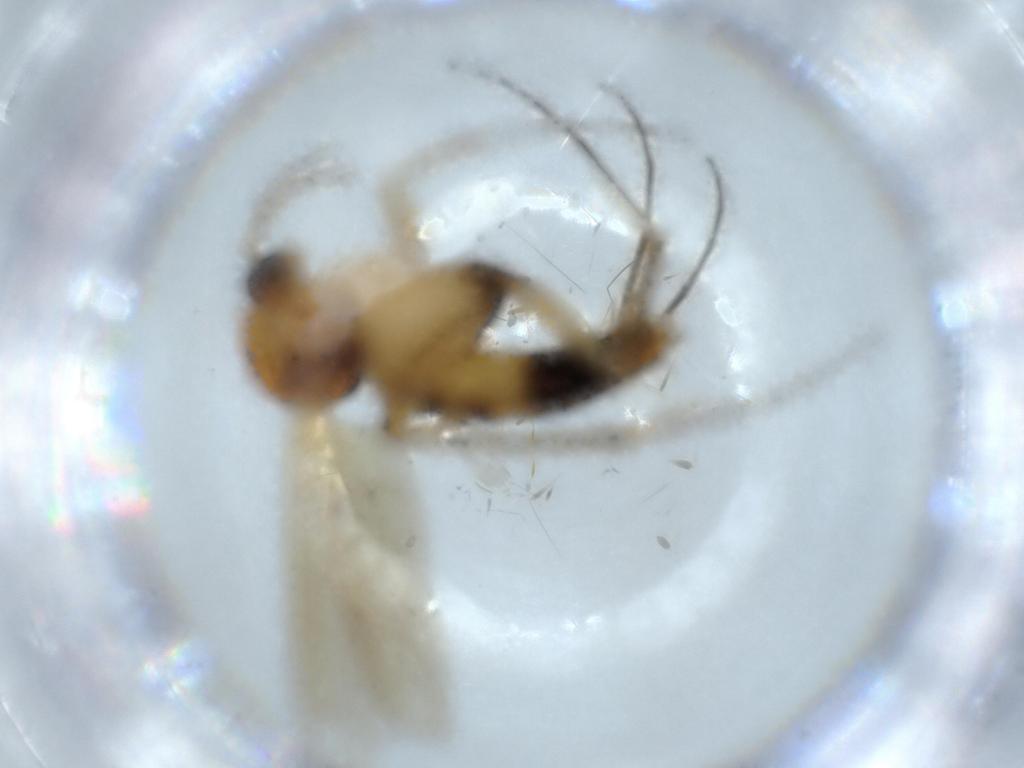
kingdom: Animalia
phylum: Arthropoda
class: Insecta
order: Diptera
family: Mycetophilidae
